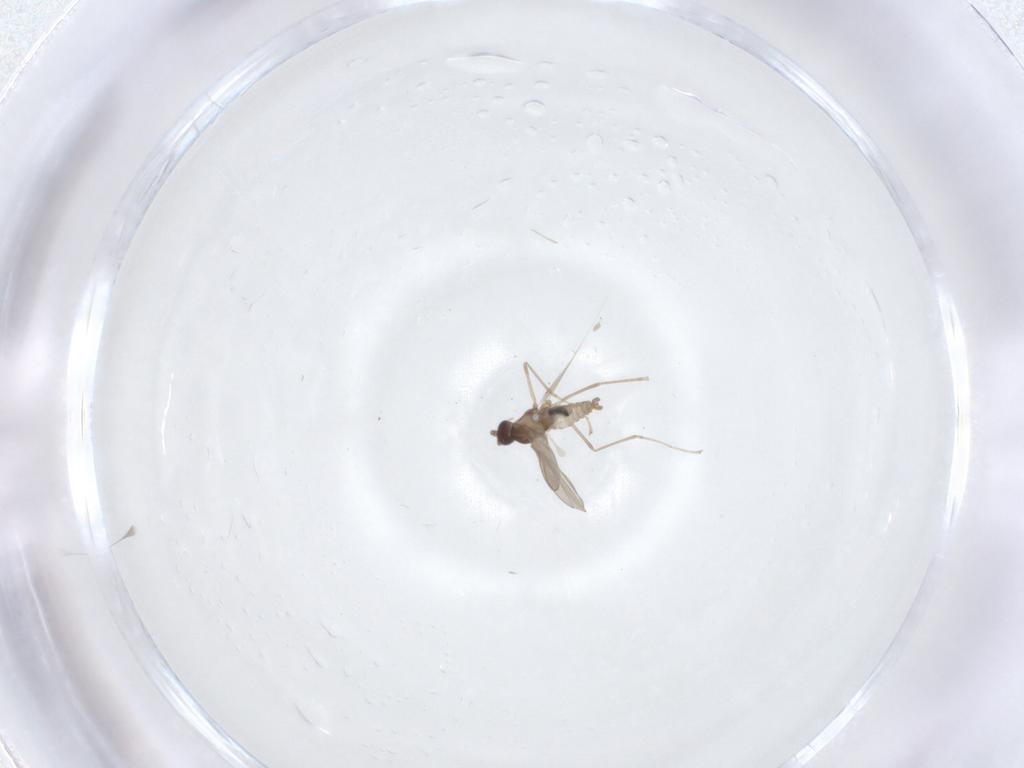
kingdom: Animalia
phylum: Arthropoda
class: Insecta
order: Diptera
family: Cecidomyiidae
